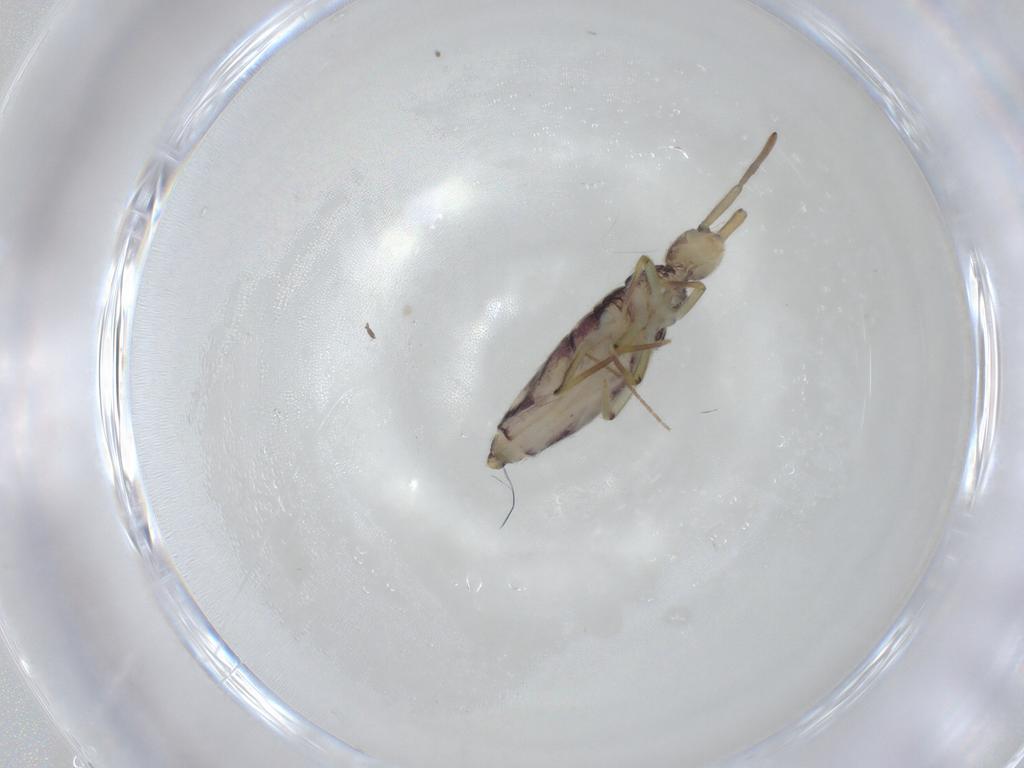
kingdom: Animalia
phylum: Arthropoda
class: Collembola
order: Entomobryomorpha
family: Entomobryidae
